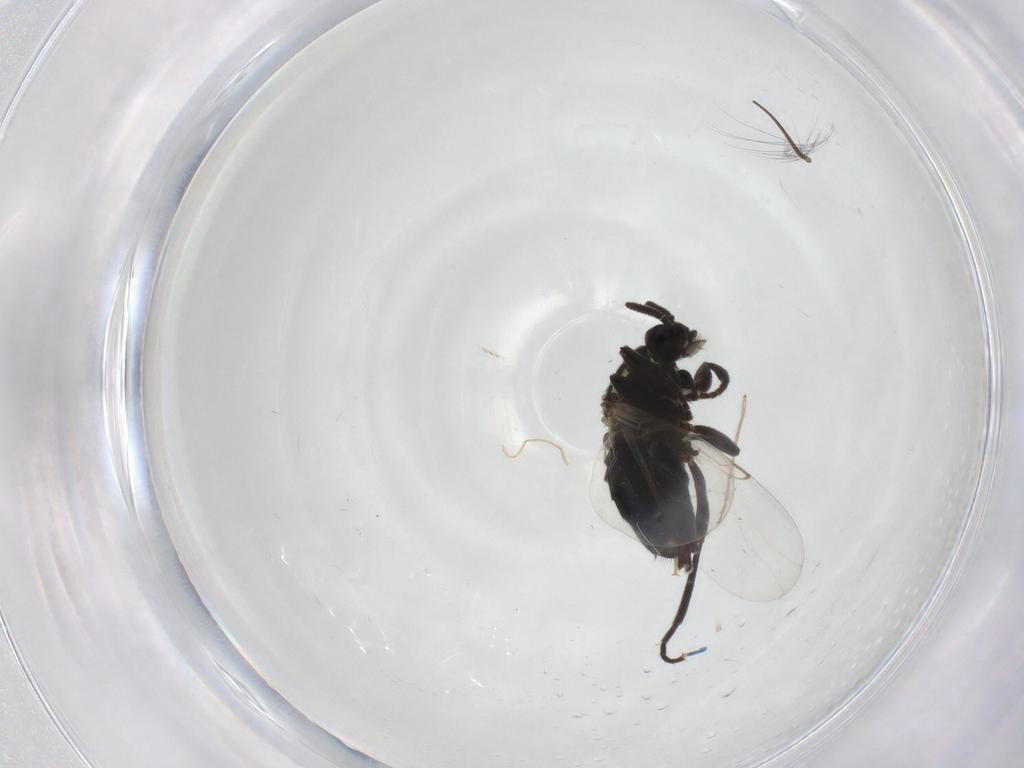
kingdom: Animalia
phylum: Arthropoda
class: Insecta
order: Diptera
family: Scatopsidae
